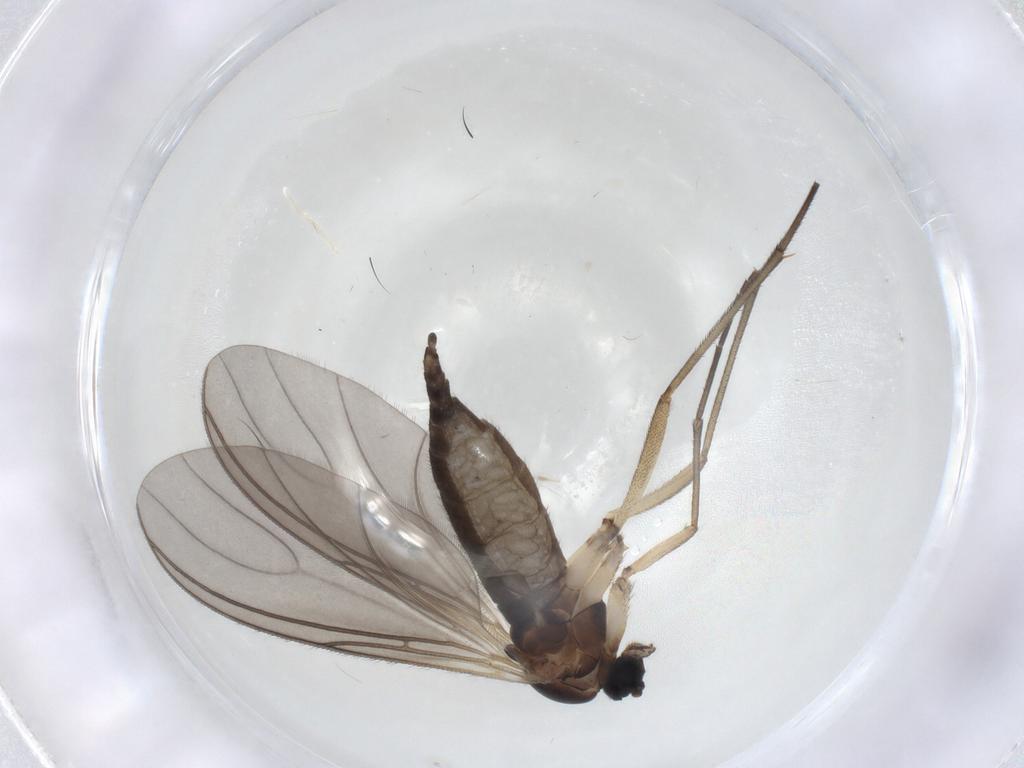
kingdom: Animalia
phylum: Arthropoda
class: Insecta
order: Diptera
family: Sciaridae
